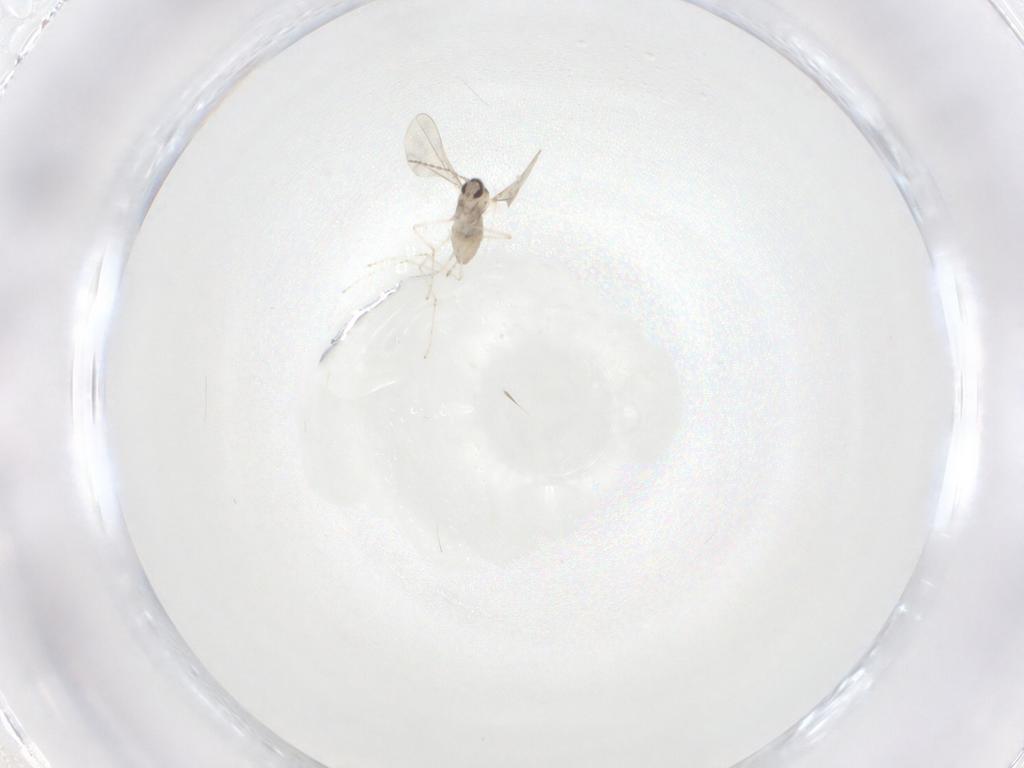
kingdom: Animalia
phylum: Arthropoda
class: Insecta
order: Diptera
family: Cecidomyiidae
